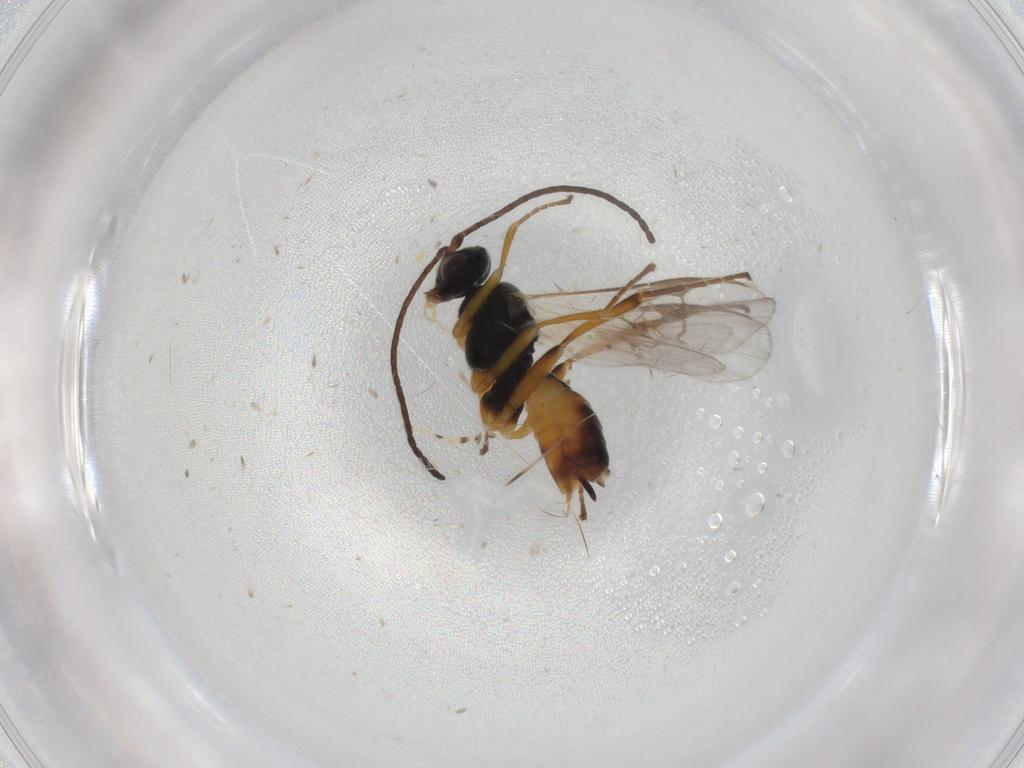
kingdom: Animalia
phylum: Arthropoda
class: Insecta
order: Hymenoptera
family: Braconidae
